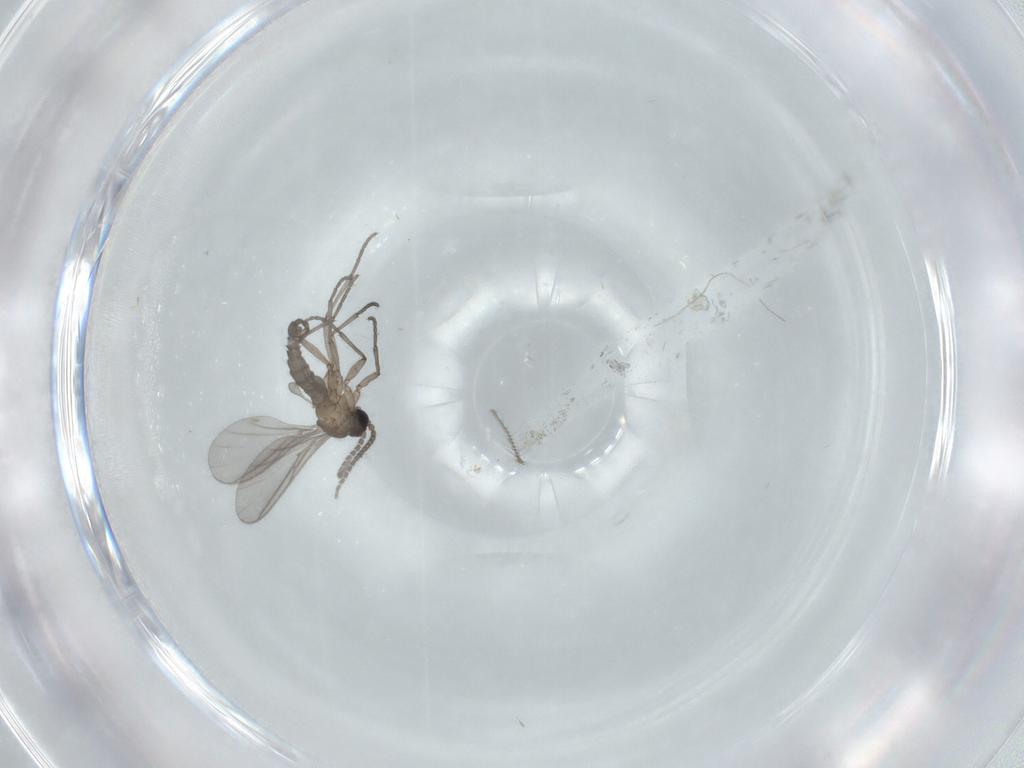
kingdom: Animalia
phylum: Arthropoda
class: Insecta
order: Diptera
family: Sciaridae
